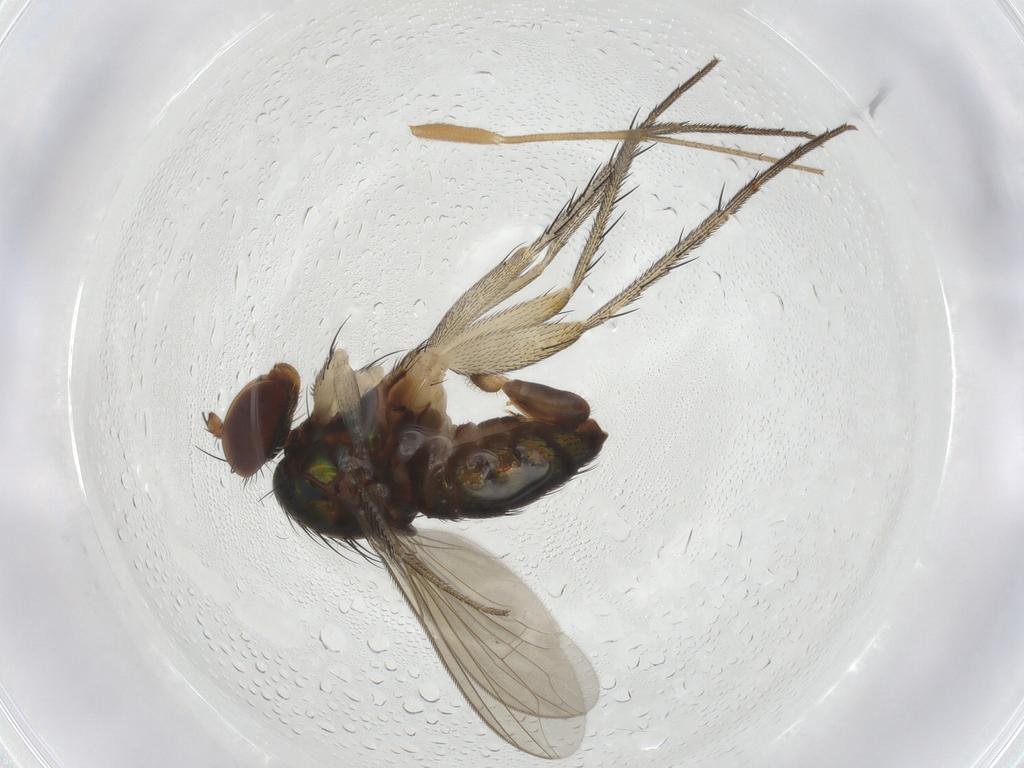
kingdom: Animalia
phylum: Arthropoda
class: Insecta
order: Diptera
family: Dolichopodidae
